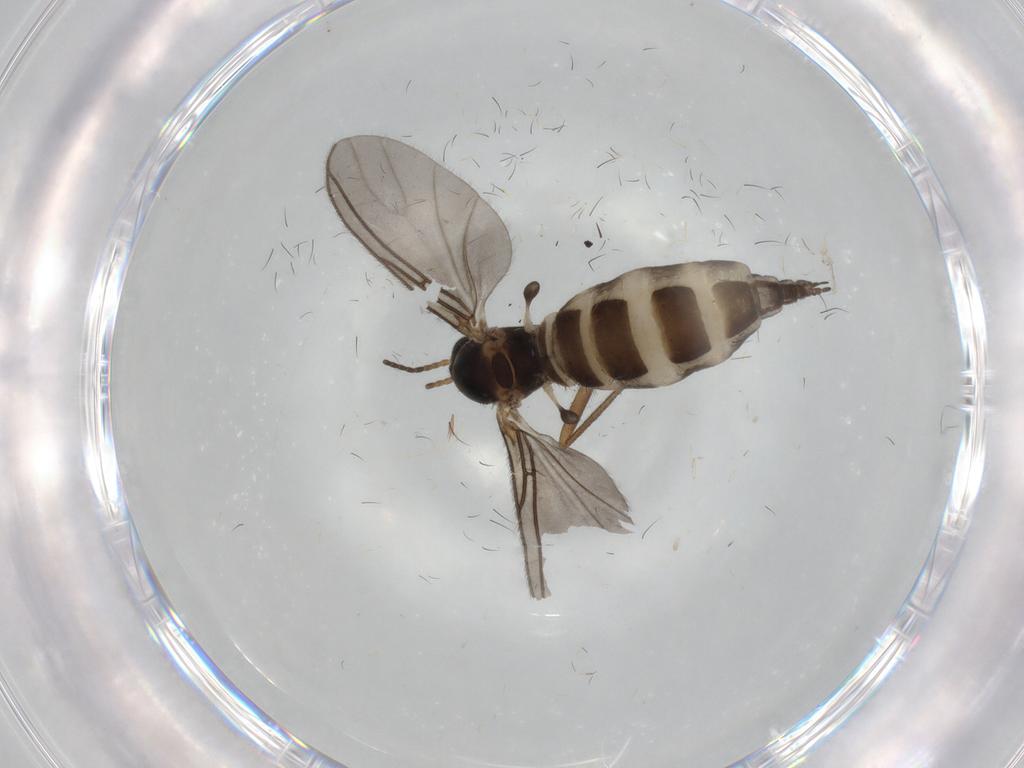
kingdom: Animalia
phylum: Arthropoda
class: Insecta
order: Diptera
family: Sciaridae
